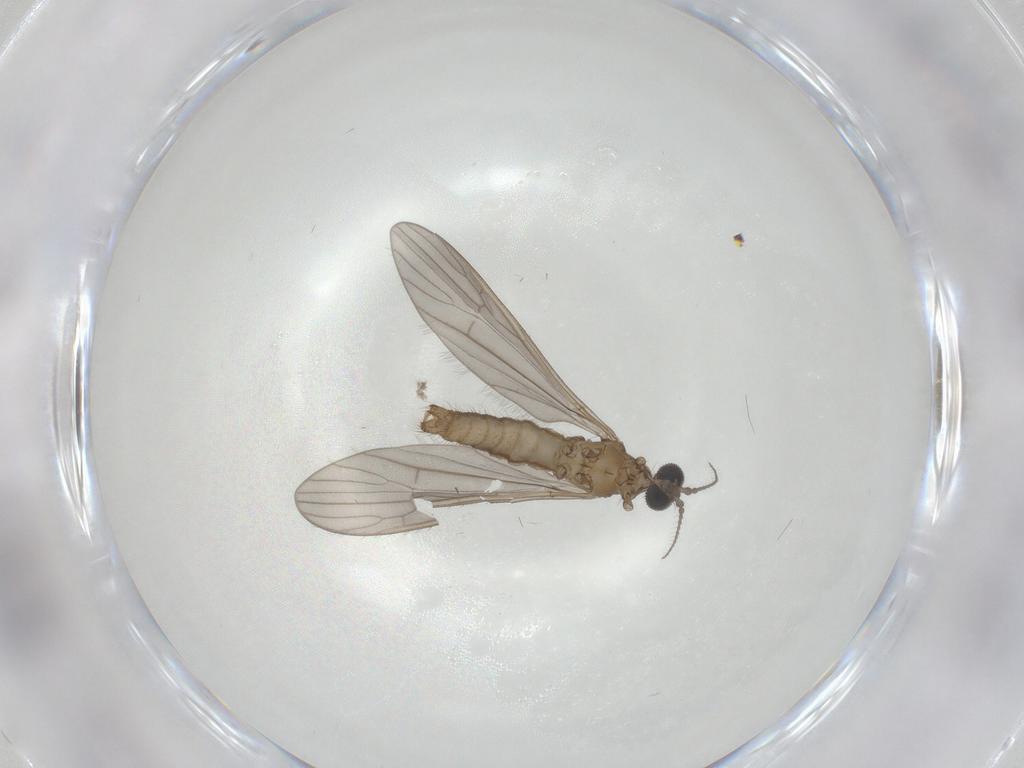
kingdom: Animalia
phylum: Arthropoda
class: Insecta
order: Diptera
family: Limoniidae
